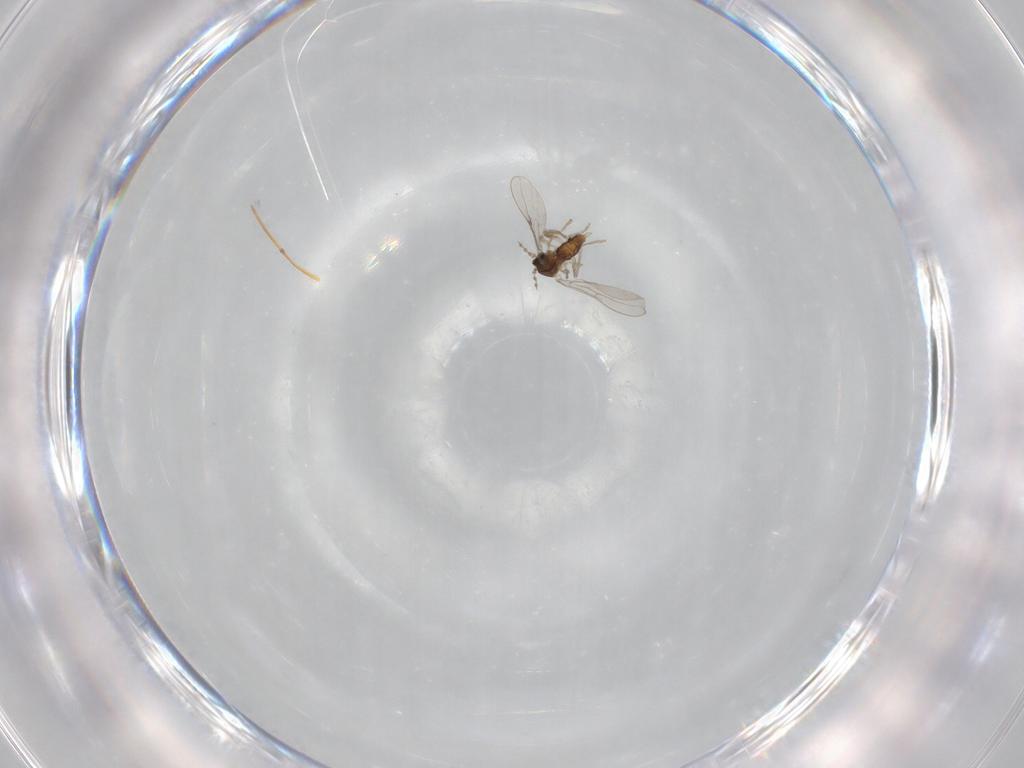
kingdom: Animalia
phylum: Arthropoda
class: Insecta
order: Diptera
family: Cecidomyiidae
